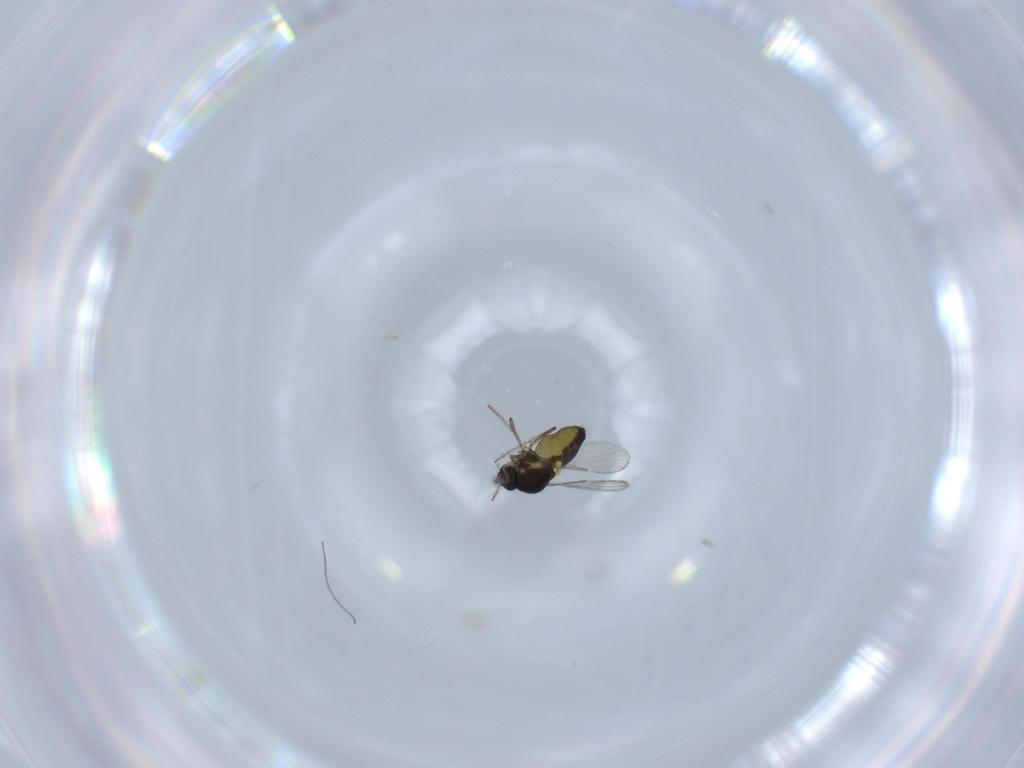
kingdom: Animalia
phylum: Arthropoda
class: Insecta
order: Diptera
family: Ceratopogonidae
